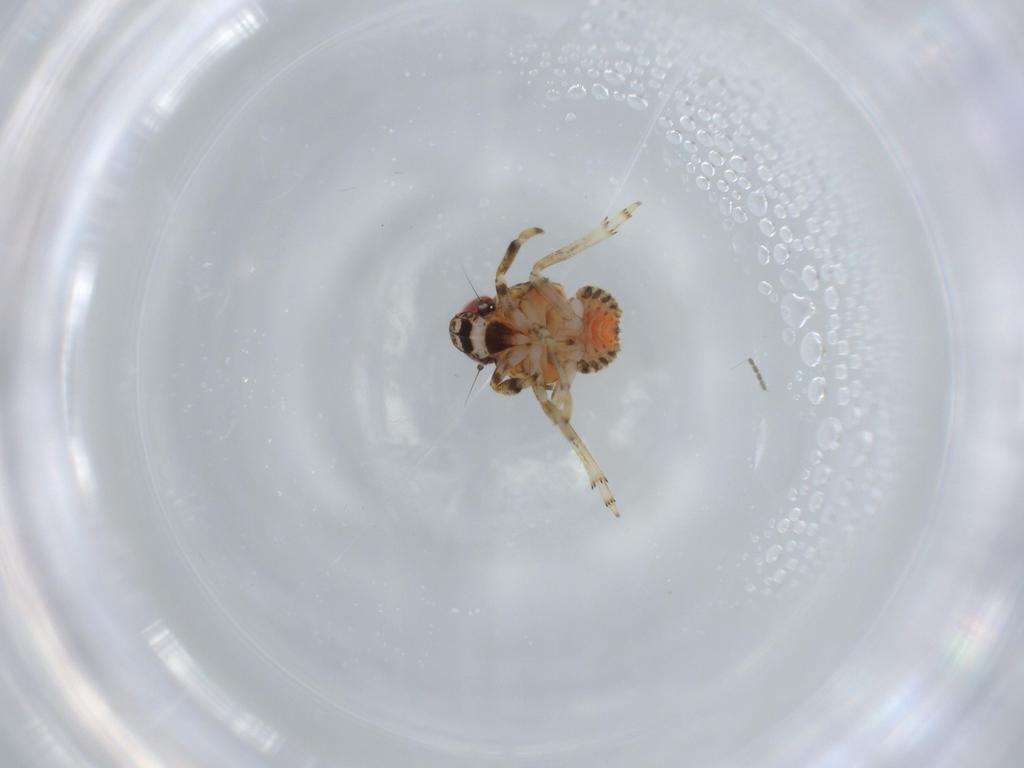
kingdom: Animalia
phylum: Arthropoda
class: Insecta
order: Hemiptera
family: Issidae
